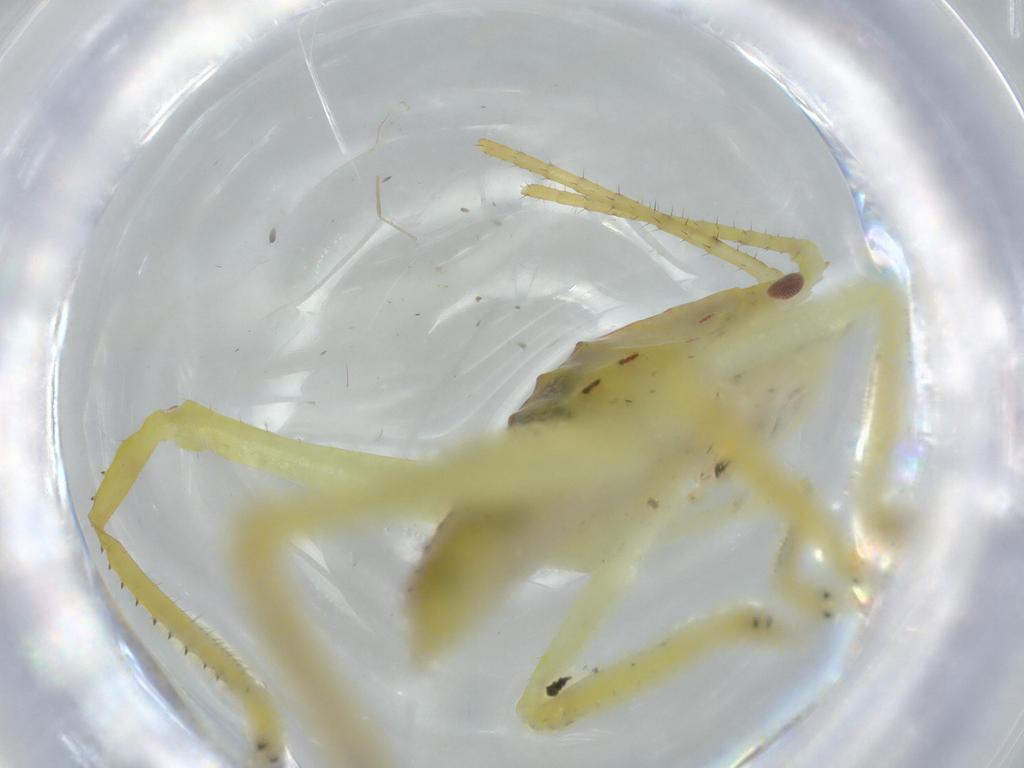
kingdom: Animalia
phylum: Arthropoda
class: Insecta
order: Orthoptera
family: Tettigoniidae
